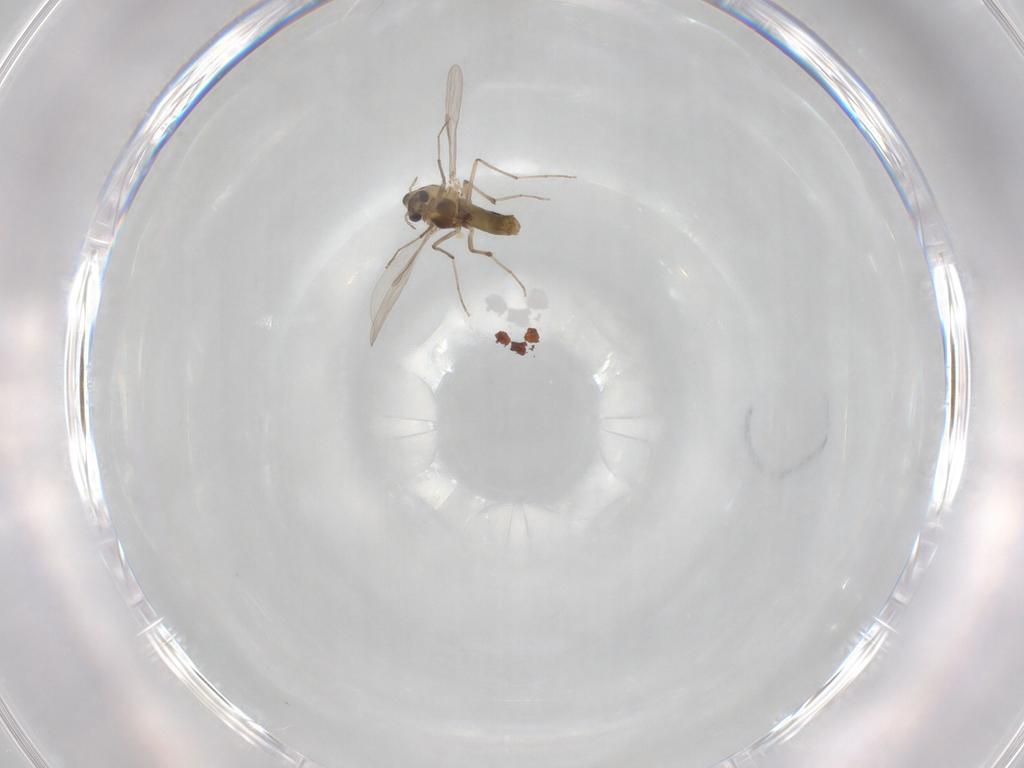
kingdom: Animalia
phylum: Arthropoda
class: Insecta
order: Diptera
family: Chironomidae
